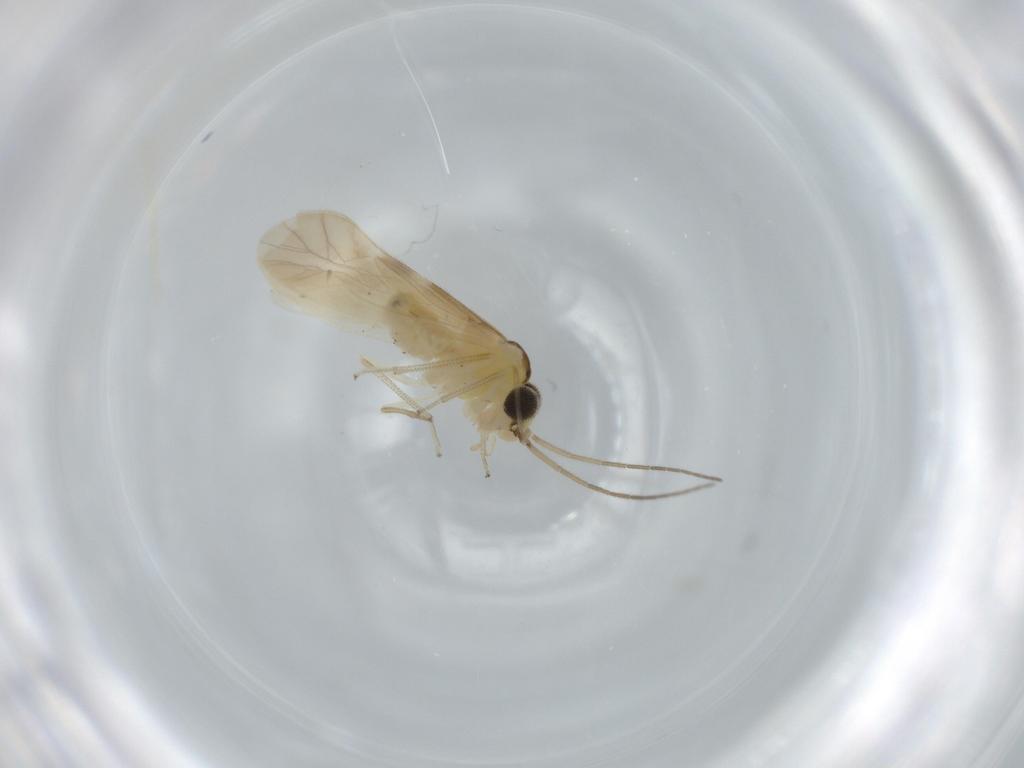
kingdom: Animalia
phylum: Arthropoda
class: Insecta
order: Psocodea
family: Caeciliusidae
